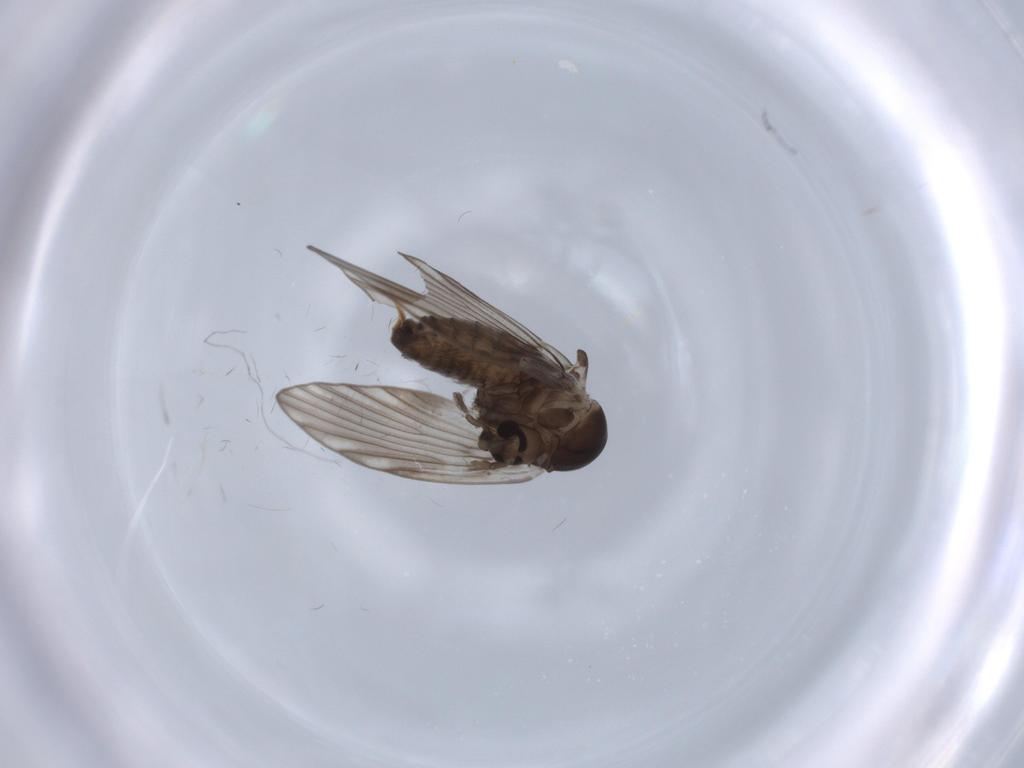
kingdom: Animalia
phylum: Arthropoda
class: Insecta
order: Diptera
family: Psychodidae
